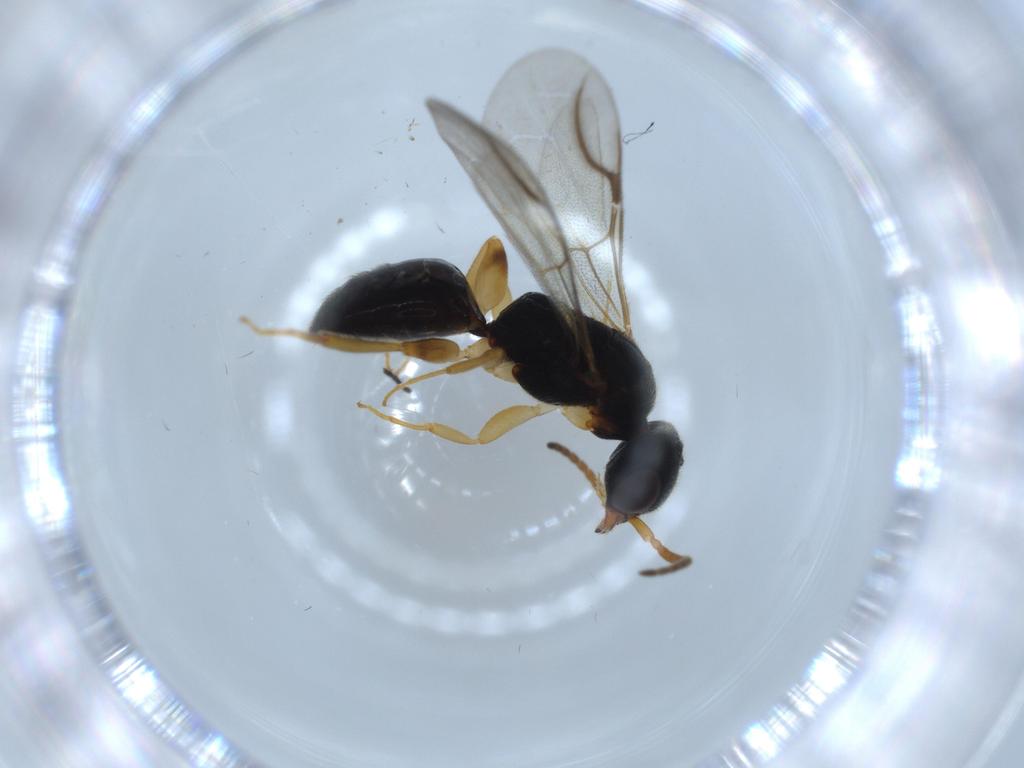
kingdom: Animalia
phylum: Arthropoda
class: Insecta
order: Hymenoptera
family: Bethylidae
